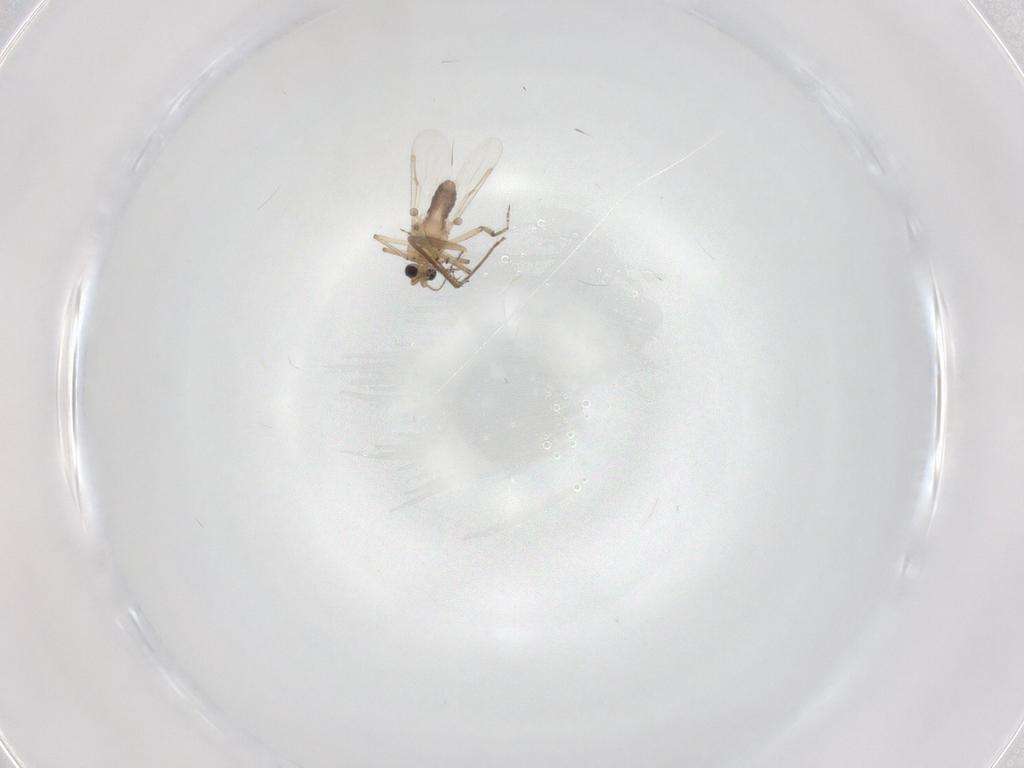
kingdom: Animalia
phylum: Arthropoda
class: Insecta
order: Diptera
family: Ceratopogonidae
